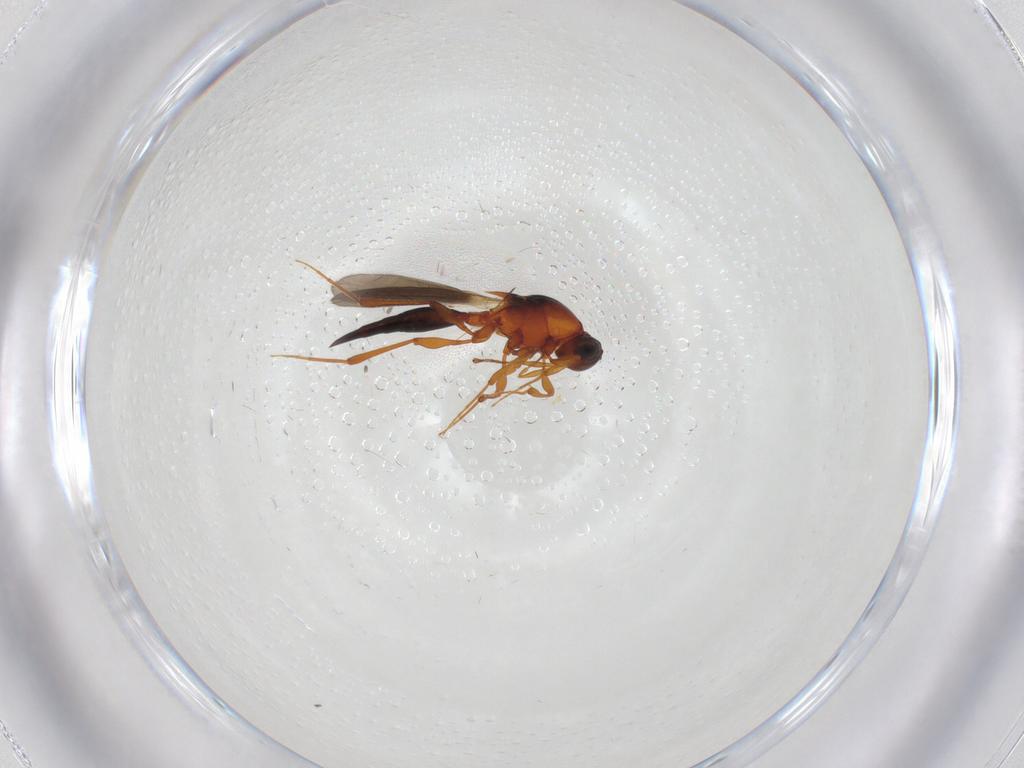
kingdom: Animalia
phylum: Arthropoda
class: Insecta
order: Hymenoptera
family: Platygastridae
